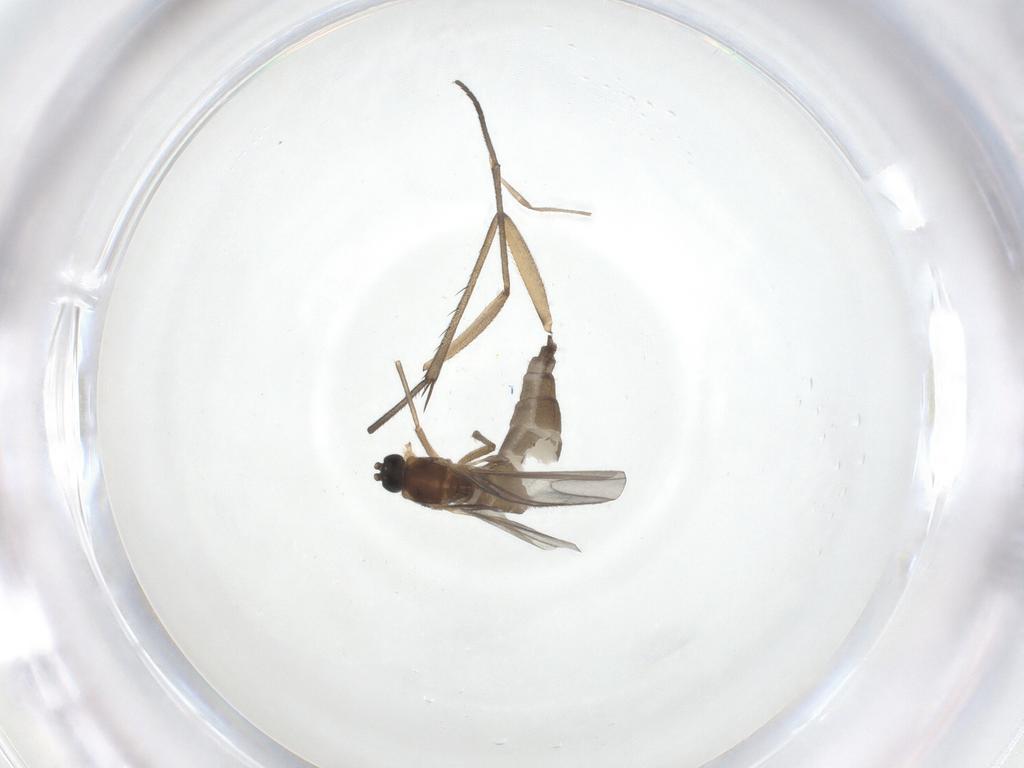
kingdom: Animalia
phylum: Arthropoda
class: Insecta
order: Diptera
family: Sciaridae
